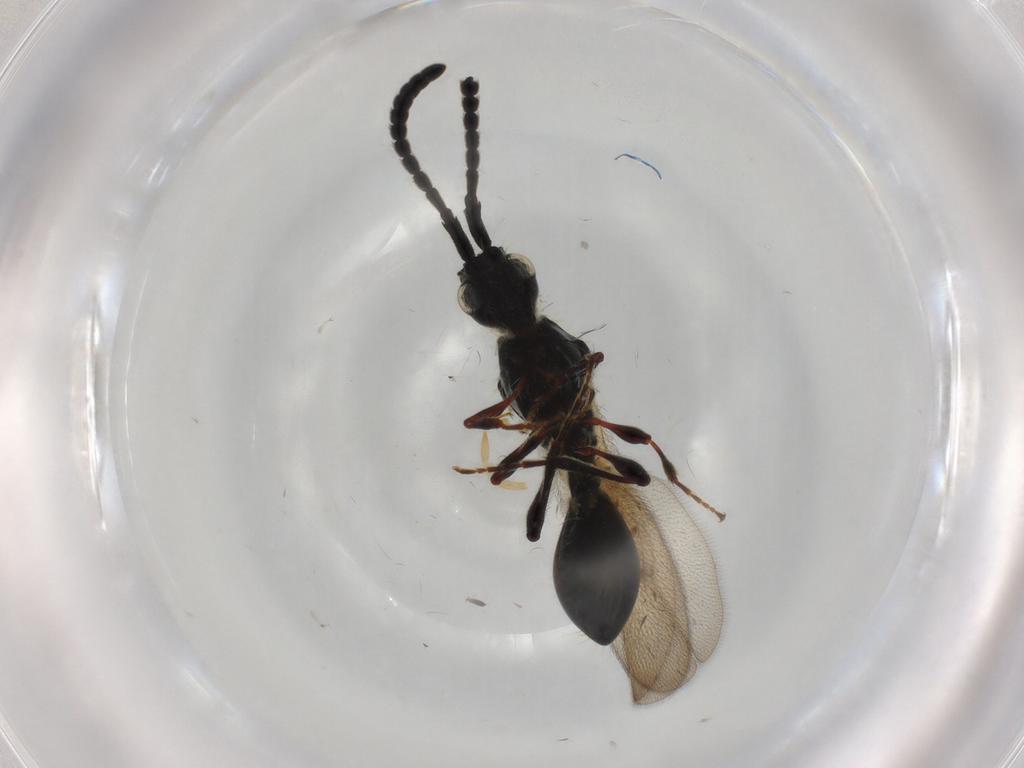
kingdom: Animalia
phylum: Arthropoda
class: Insecta
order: Hymenoptera
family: Diapriidae
